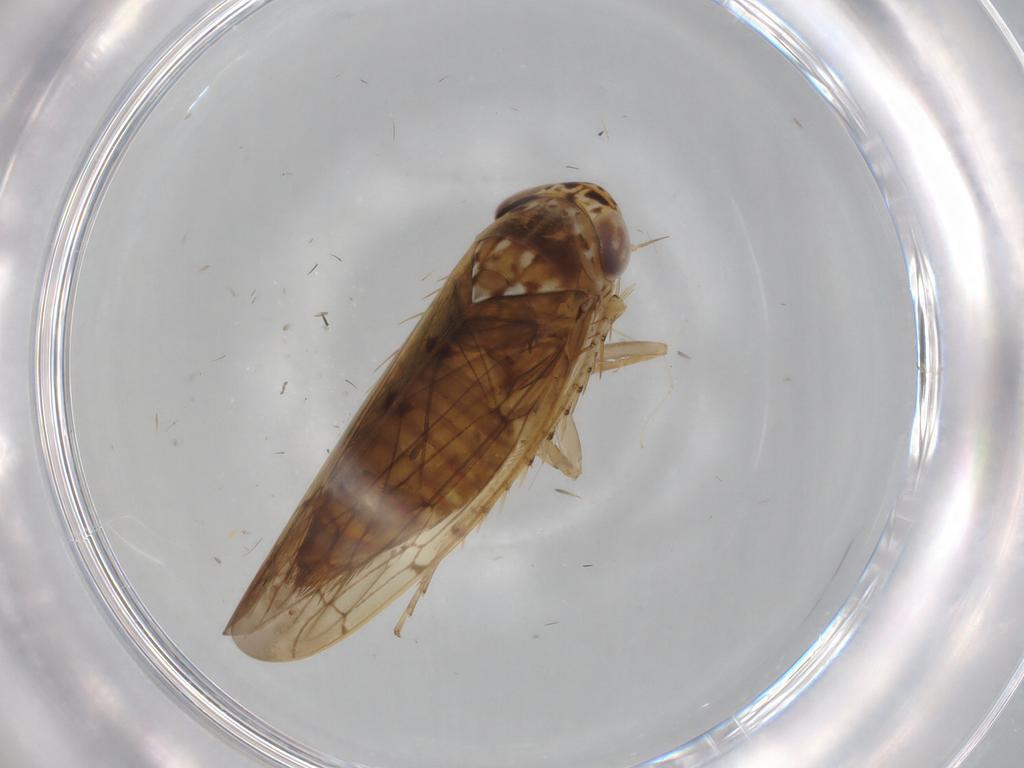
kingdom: Animalia
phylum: Arthropoda
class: Insecta
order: Hemiptera
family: Cicadellidae
